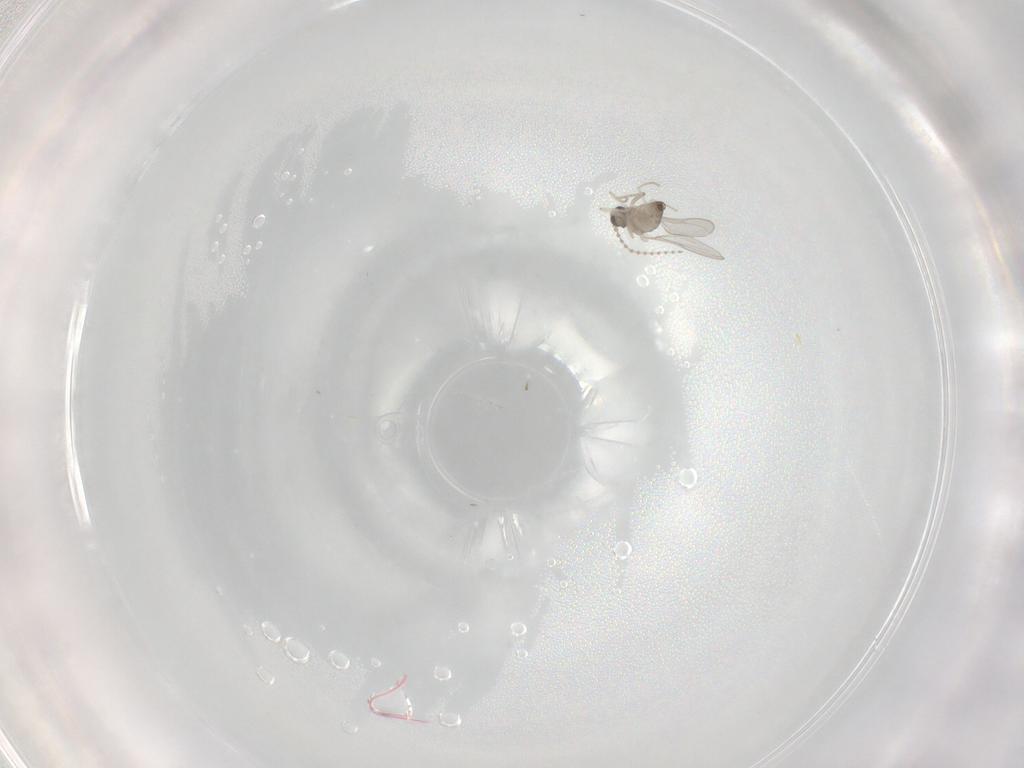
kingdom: Animalia
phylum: Arthropoda
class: Insecta
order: Diptera
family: Cecidomyiidae
